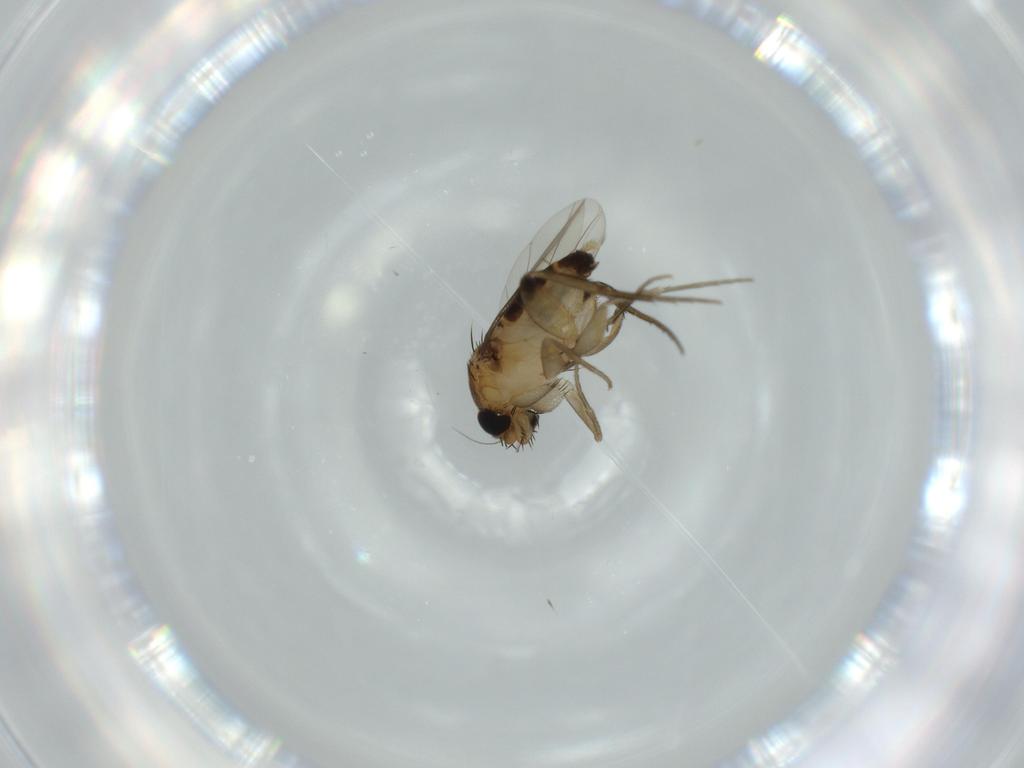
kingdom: Animalia
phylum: Arthropoda
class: Insecta
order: Diptera
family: Phoridae
